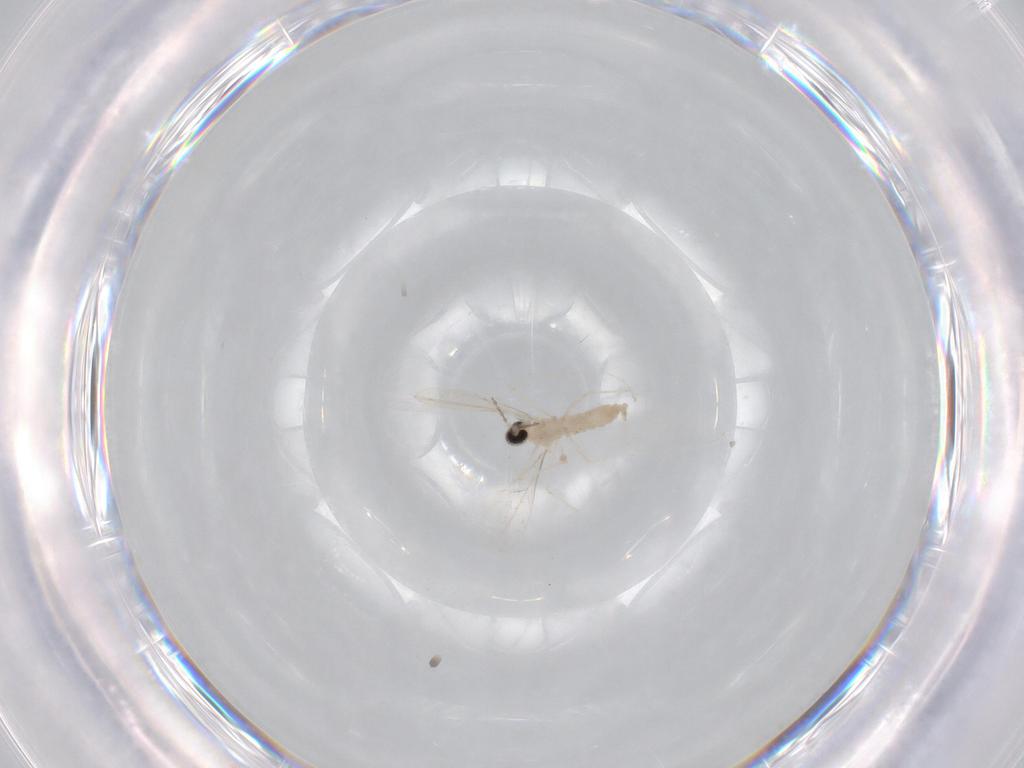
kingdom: Animalia
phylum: Arthropoda
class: Insecta
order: Diptera
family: Cecidomyiidae
